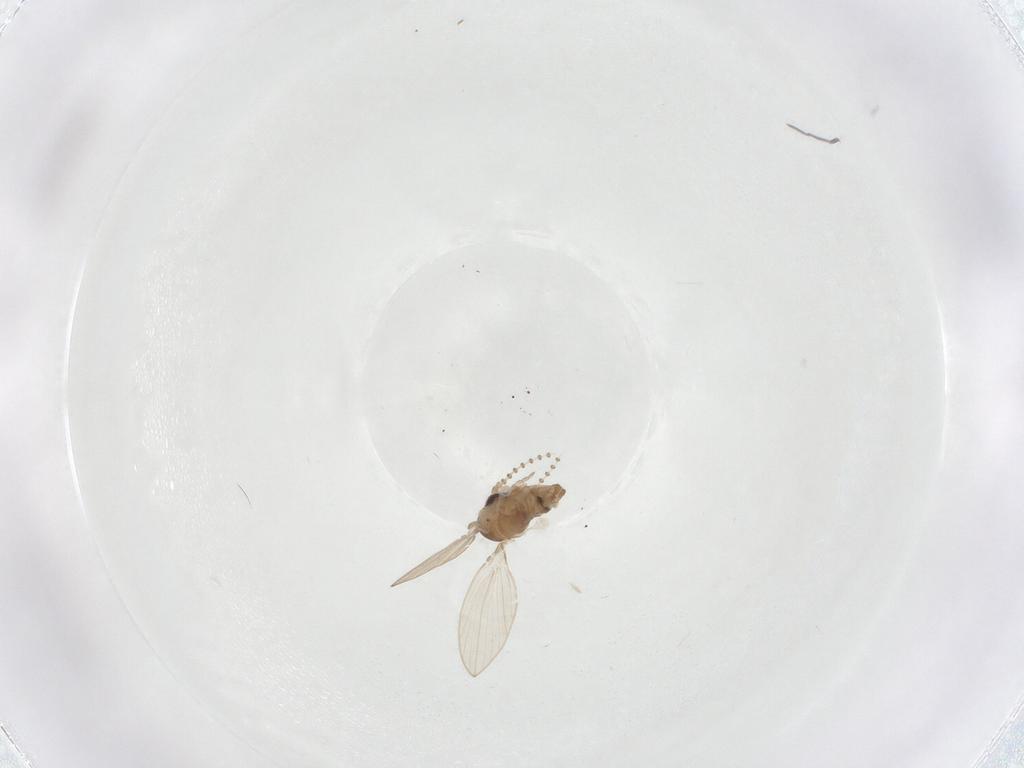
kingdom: Animalia
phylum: Arthropoda
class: Insecta
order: Diptera
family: Psychodidae
